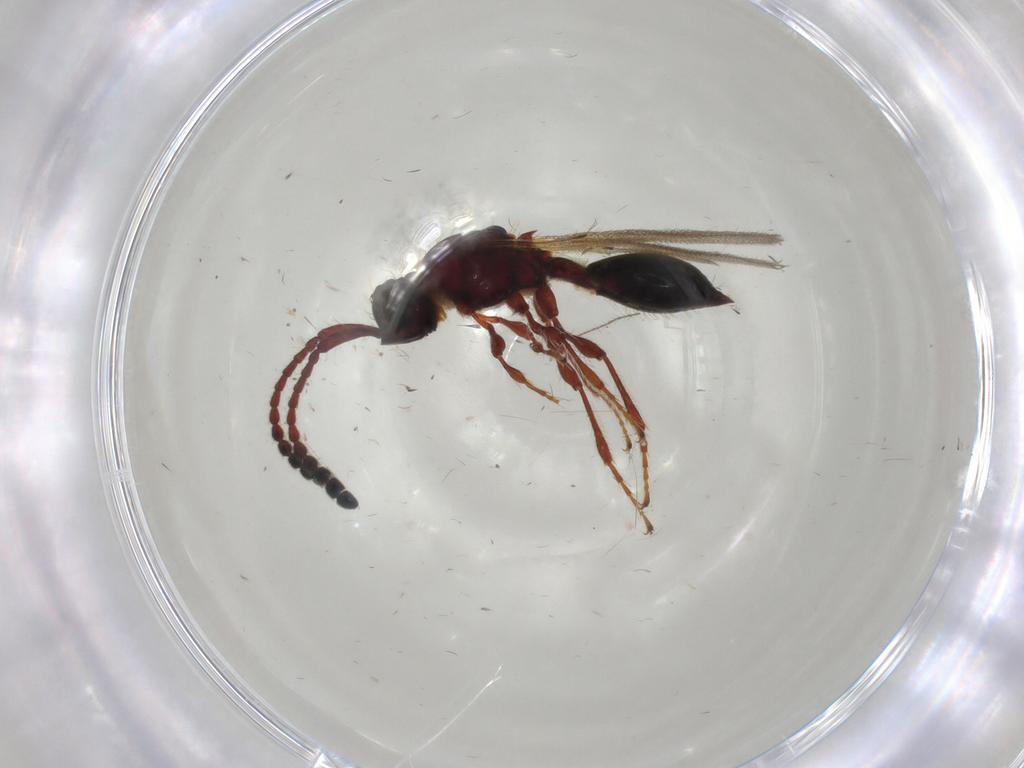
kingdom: Animalia
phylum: Arthropoda
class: Insecta
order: Hymenoptera
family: Diapriidae
